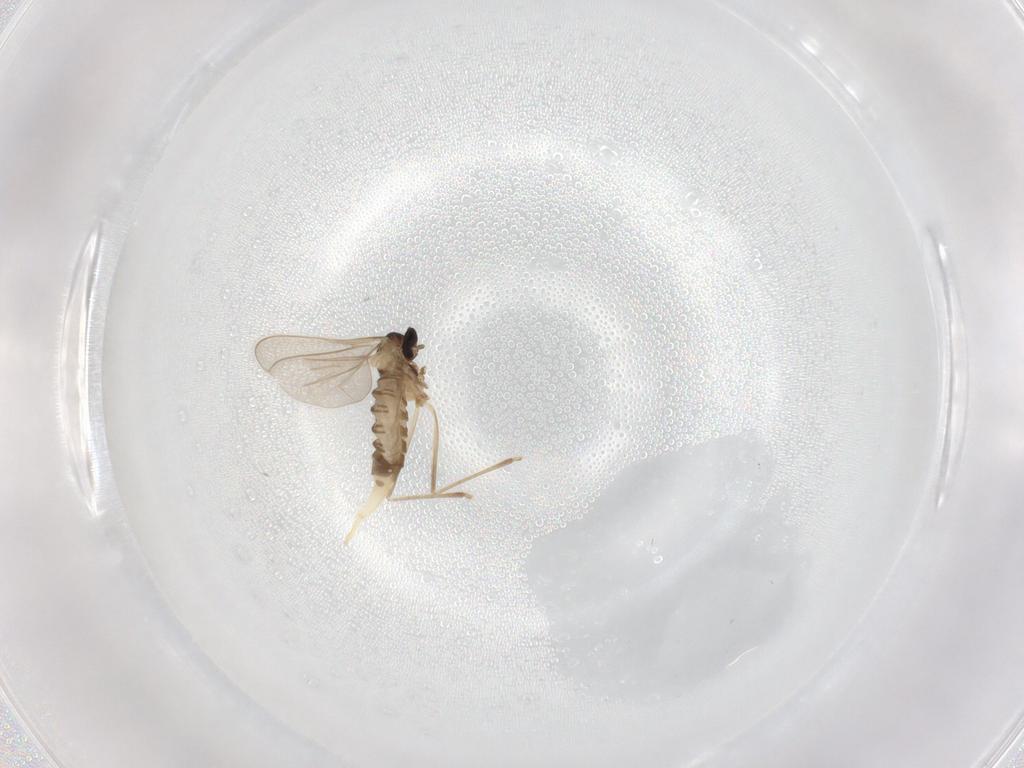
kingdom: Animalia
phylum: Arthropoda
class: Insecta
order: Diptera
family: Cecidomyiidae
